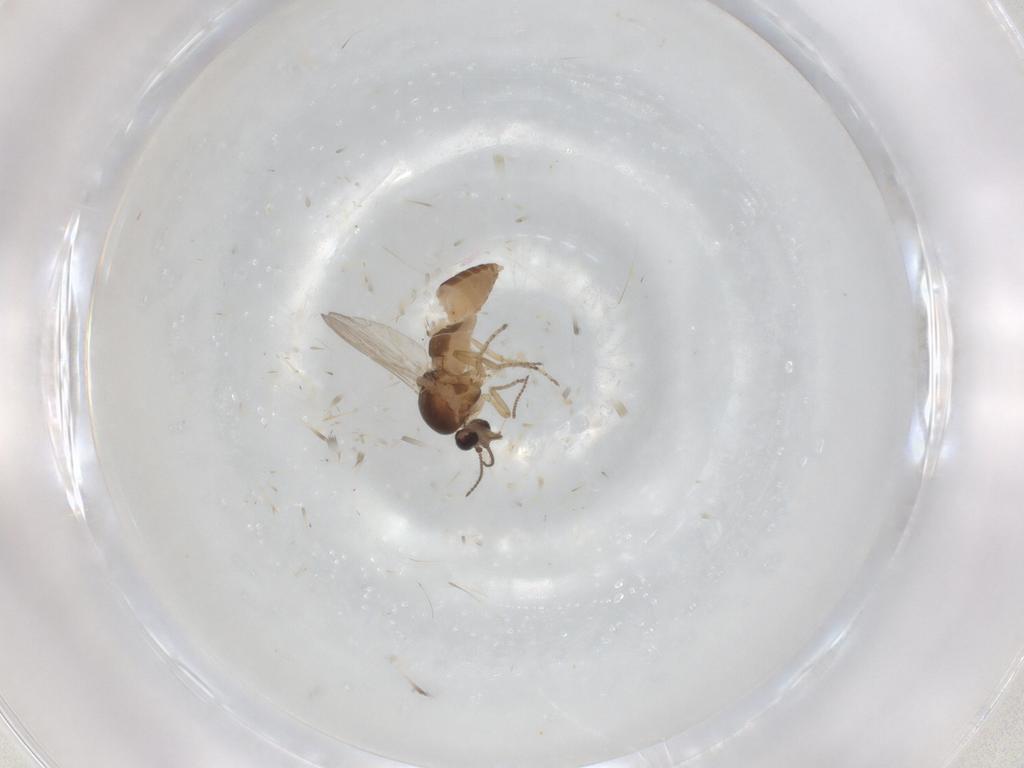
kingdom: Animalia
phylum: Arthropoda
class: Insecta
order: Diptera
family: Ceratopogonidae
